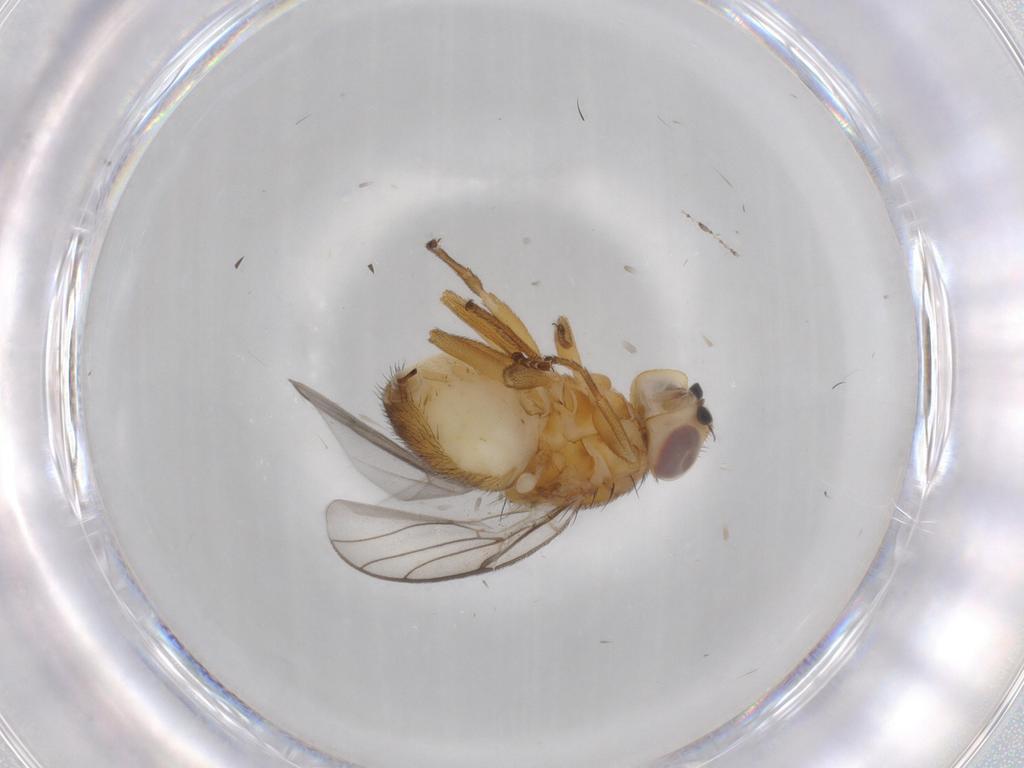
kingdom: Animalia
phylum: Arthropoda
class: Insecta
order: Diptera
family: Chloropidae
